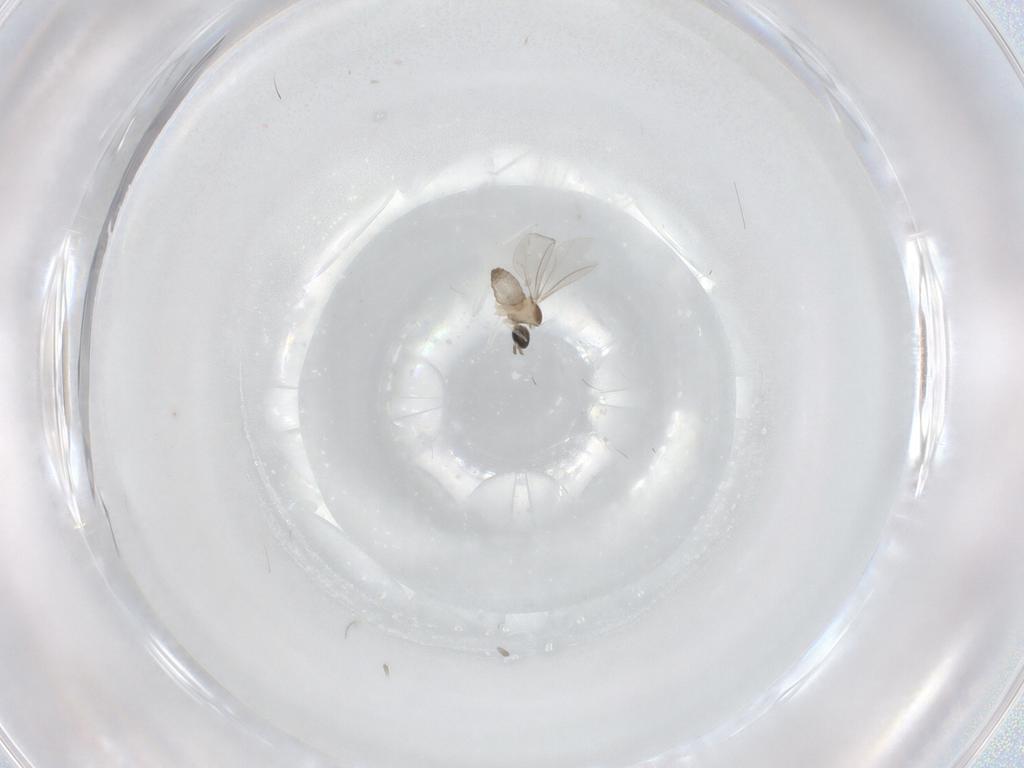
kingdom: Animalia
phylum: Arthropoda
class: Insecta
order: Diptera
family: Cecidomyiidae
